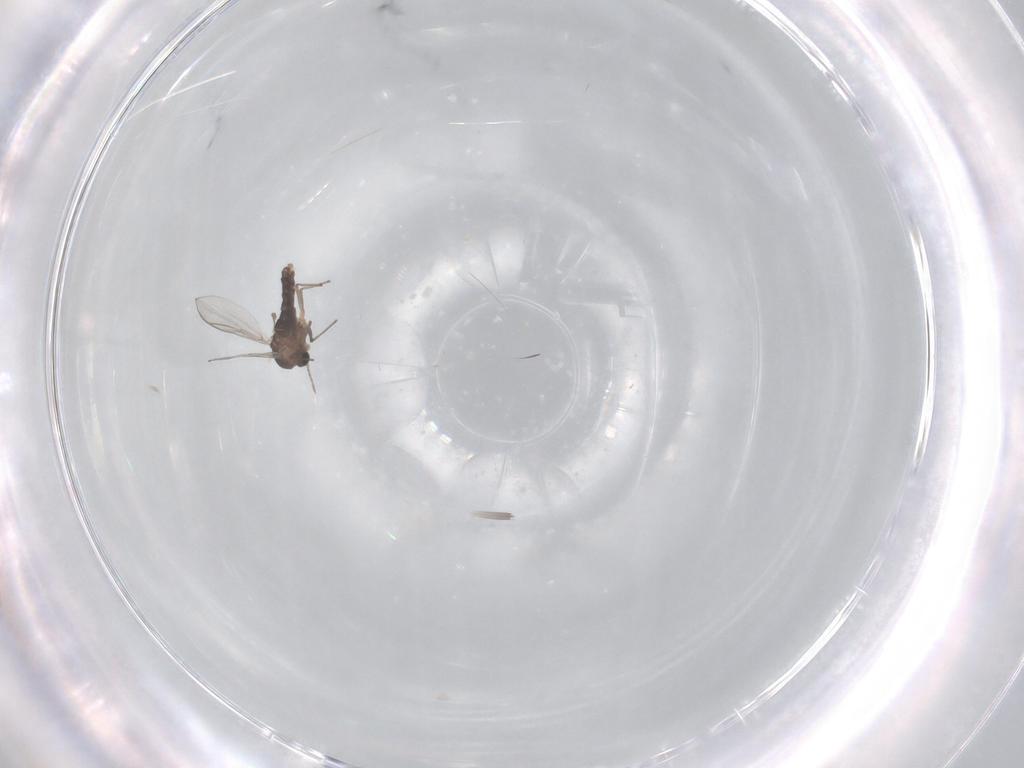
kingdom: Animalia
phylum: Arthropoda
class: Insecta
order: Diptera
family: Chironomidae
